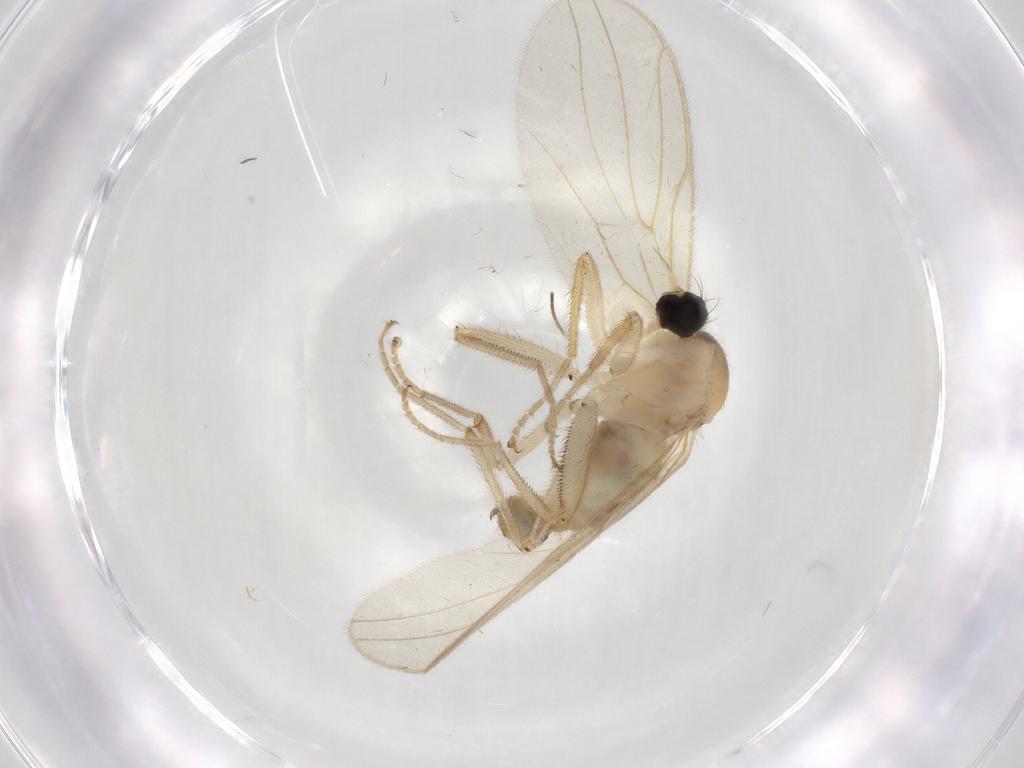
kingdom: Animalia
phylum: Arthropoda
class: Insecta
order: Diptera
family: Hybotidae
